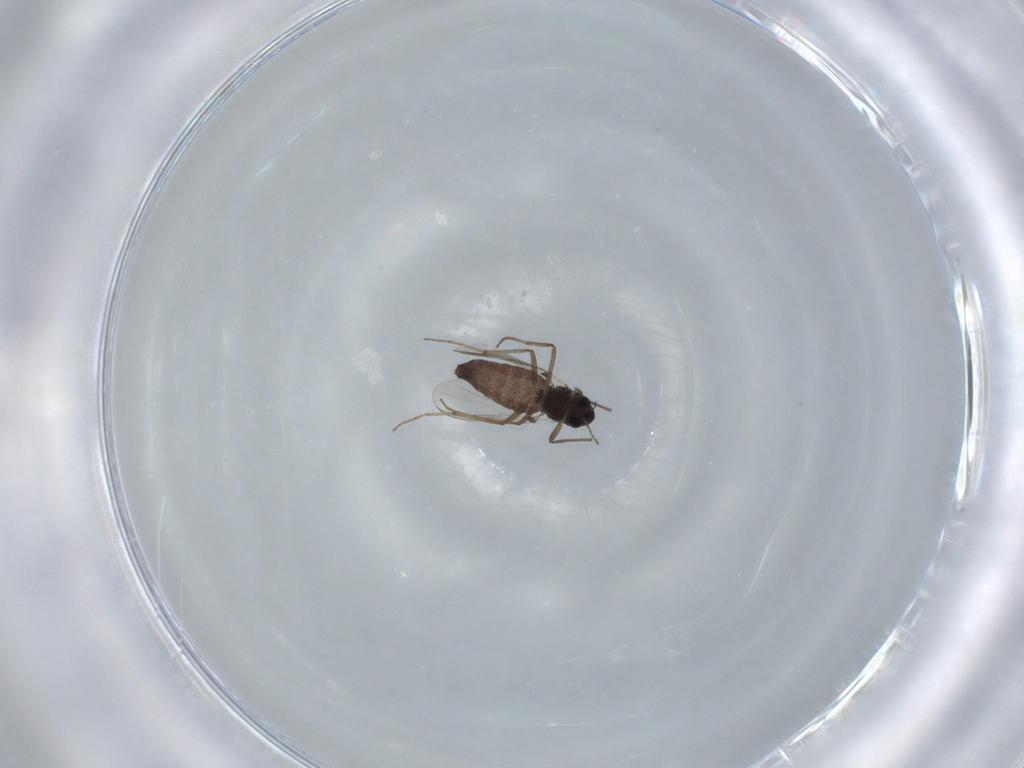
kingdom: Animalia
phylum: Arthropoda
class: Insecta
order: Diptera
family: Chironomidae
